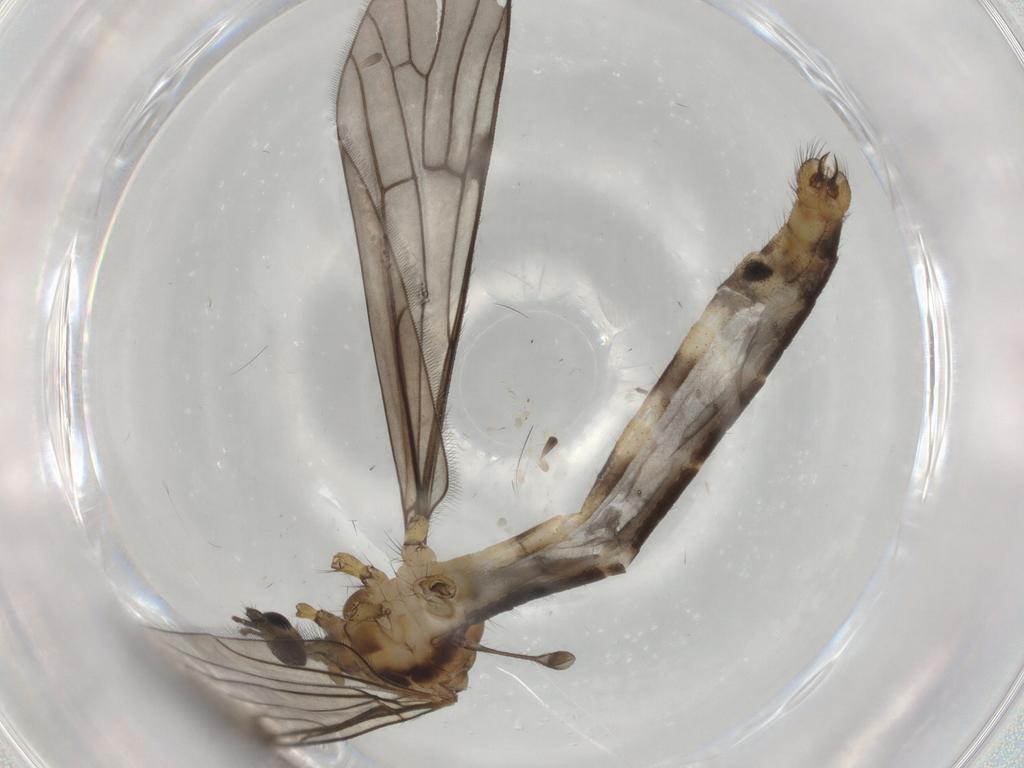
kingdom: Animalia
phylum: Arthropoda
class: Insecta
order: Diptera
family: Limoniidae
